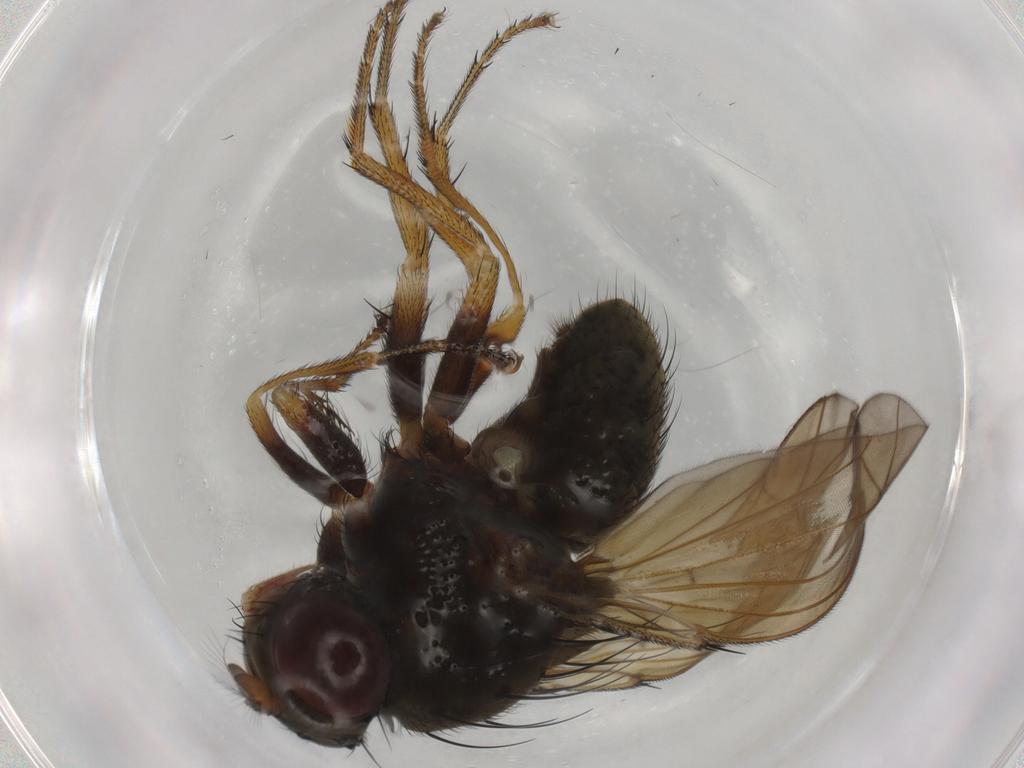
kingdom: Animalia
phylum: Arthropoda
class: Insecta
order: Diptera
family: Ephydridae
